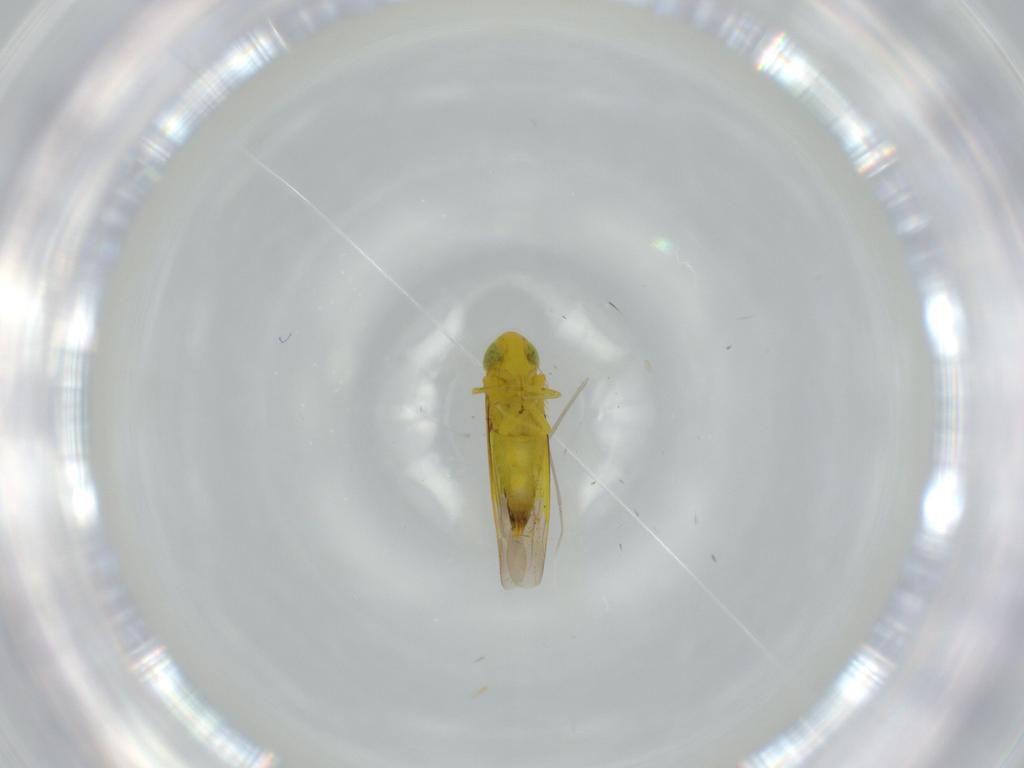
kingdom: Animalia
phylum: Arthropoda
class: Insecta
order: Hemiptera
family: Cicadellidae
